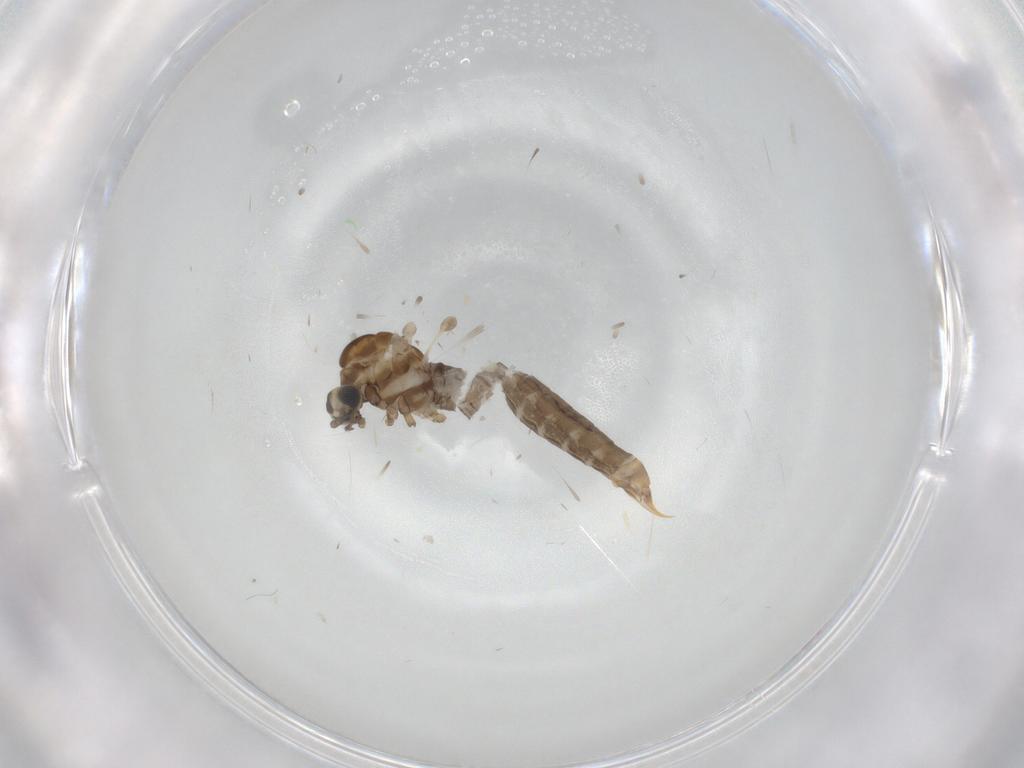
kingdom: Animalia
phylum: Arthropoda
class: Insecta
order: Diptera
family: Limoniidae
